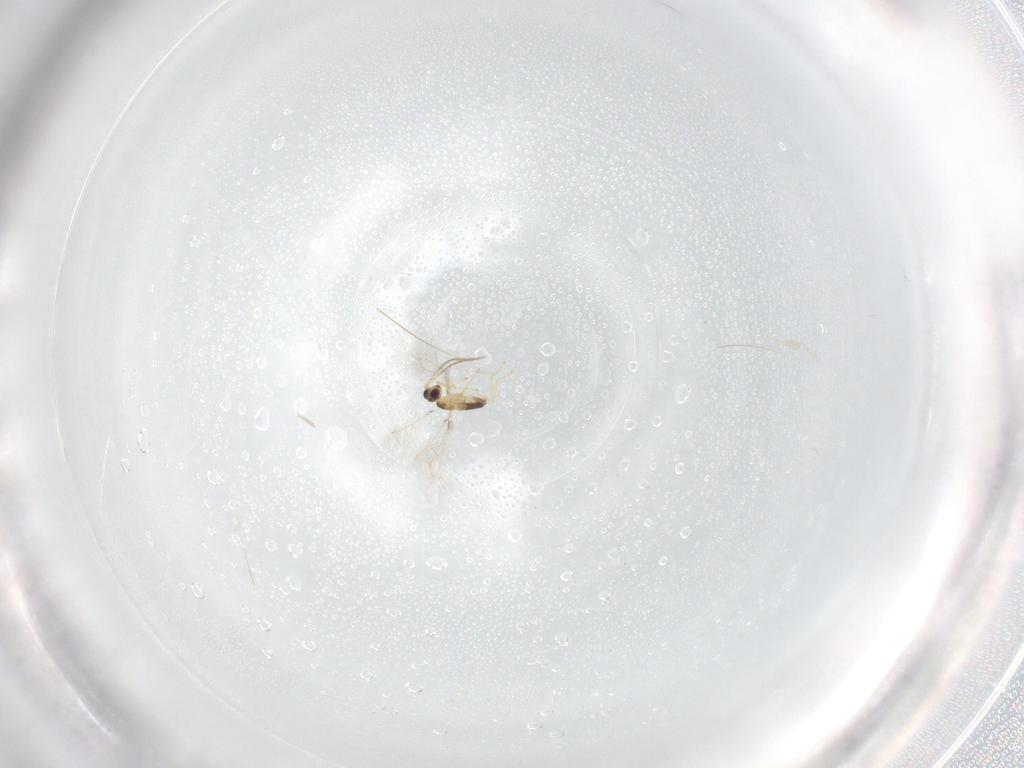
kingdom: Animalia
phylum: Arthropoda
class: Insecta
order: Hymenoptera
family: Mymaridae
